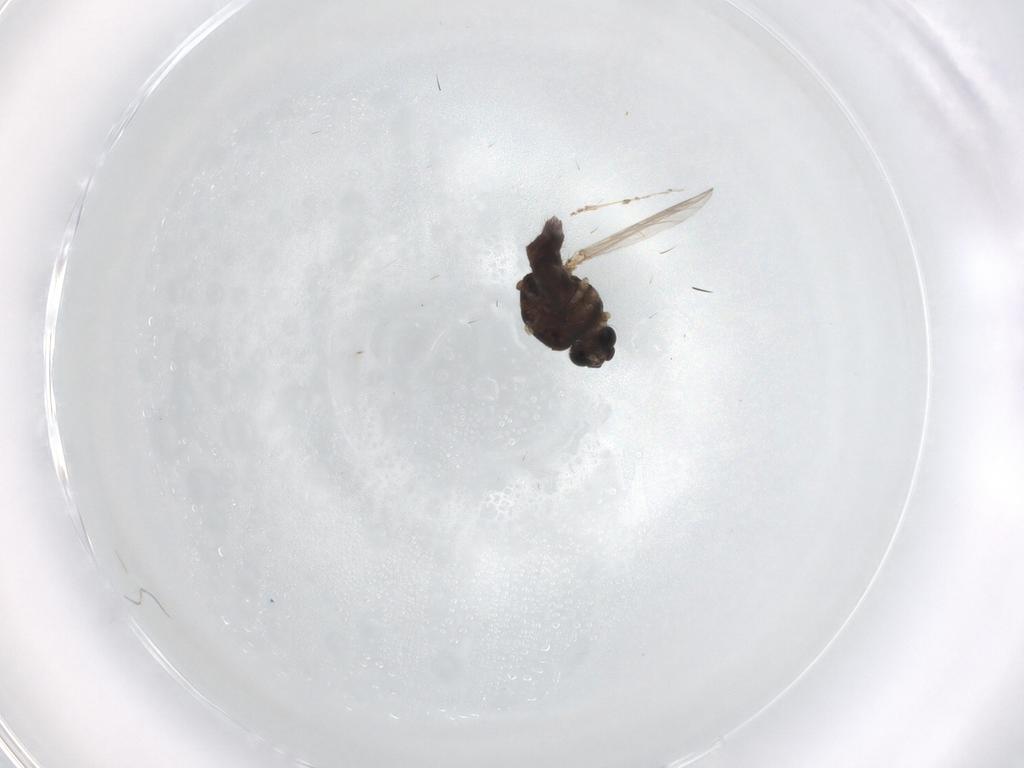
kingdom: Animalia
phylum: Arthropoda
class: Insecta
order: Diptera
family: Ceratopogonidae
